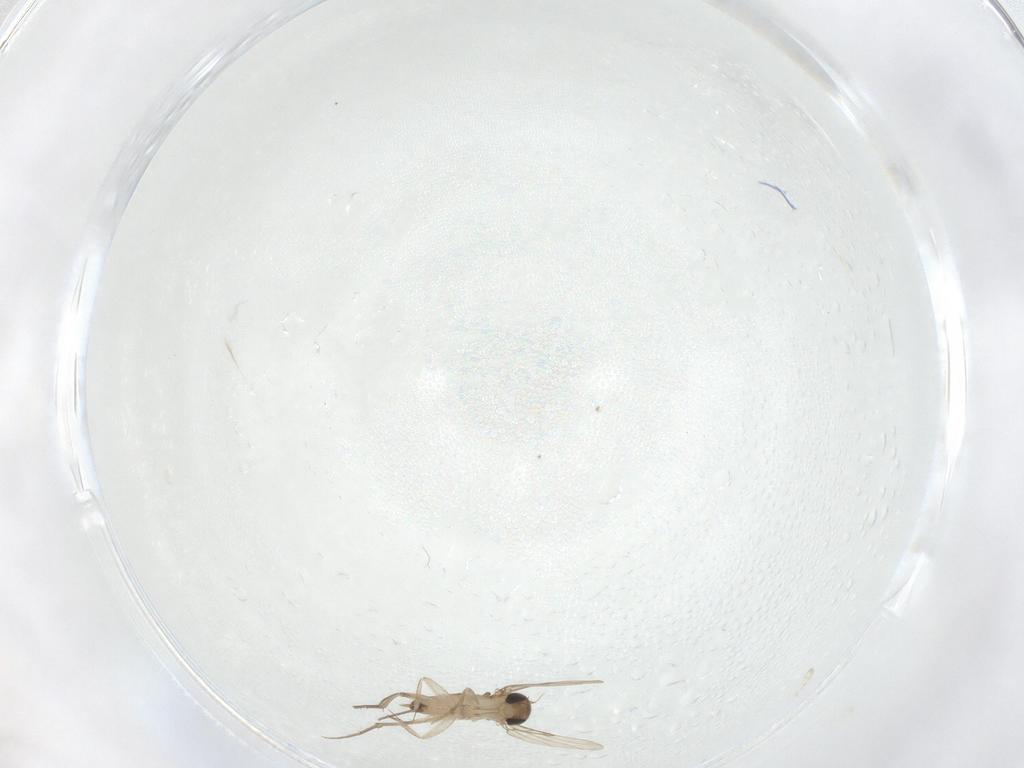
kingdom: Animalia
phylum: Arthropoda
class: Insecta
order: Diptera
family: Phoridae
